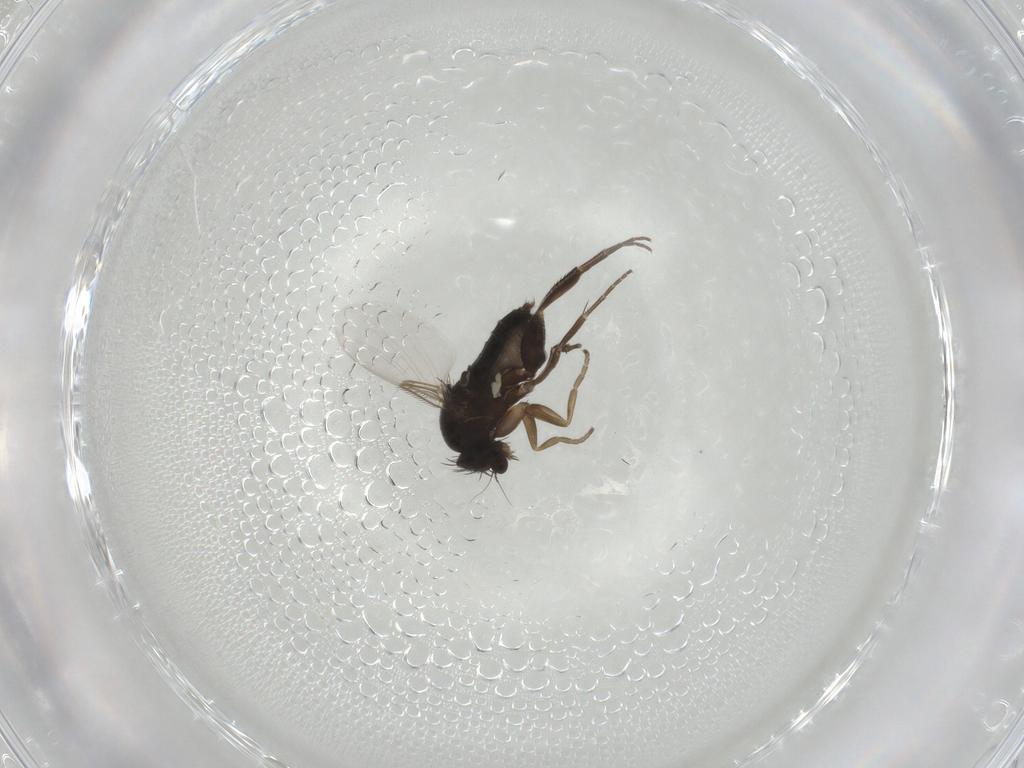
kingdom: Animalia
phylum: Arthropoda
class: Insecta
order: Diptera
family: Phoridae
